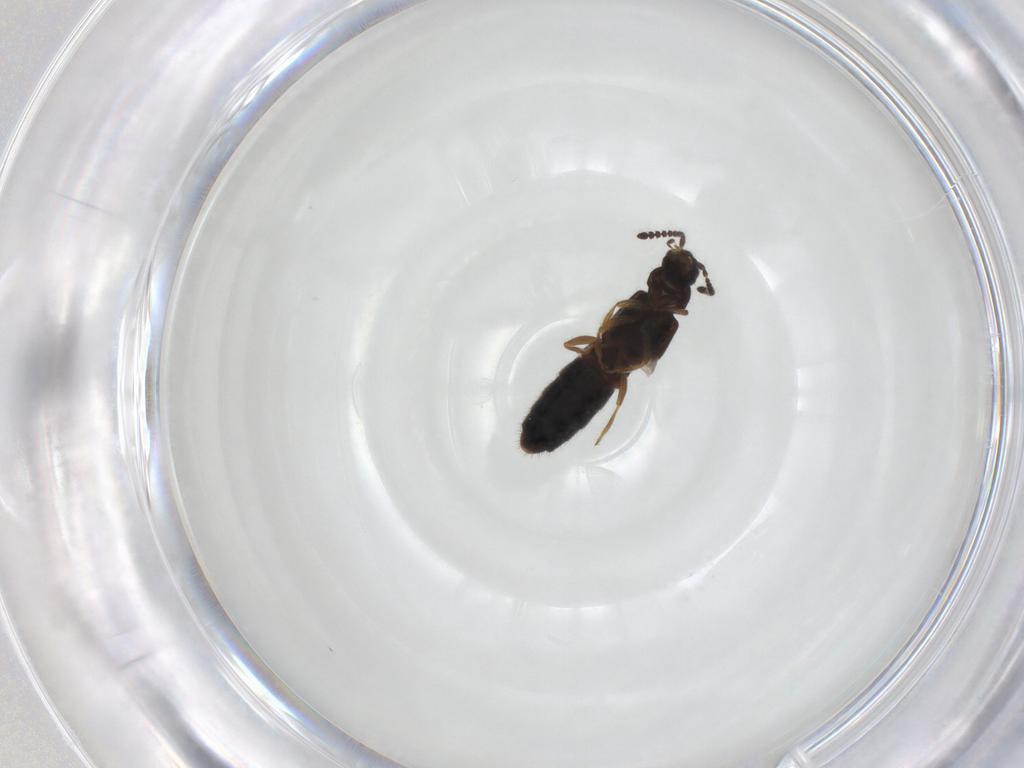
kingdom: Animalia
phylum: Arthropoda
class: Insecta
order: Coleoptera
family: Staphylinidae
